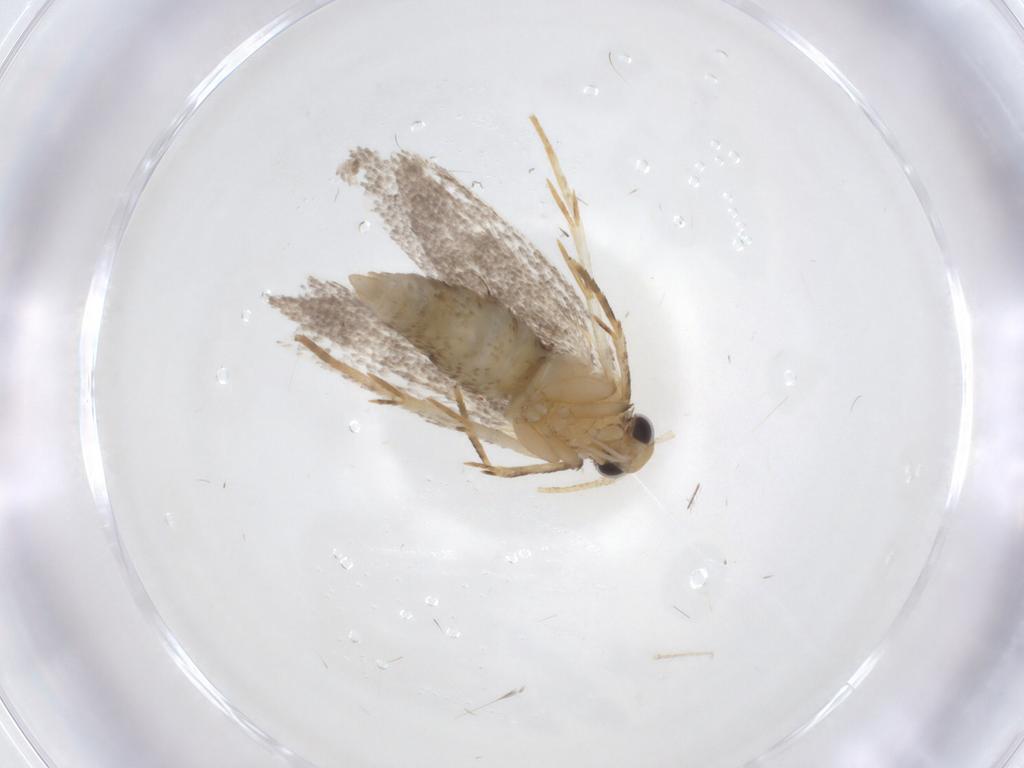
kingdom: Animalia
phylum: Arthropoda
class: Insecta
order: Lepidoptera
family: Oecophoridae
